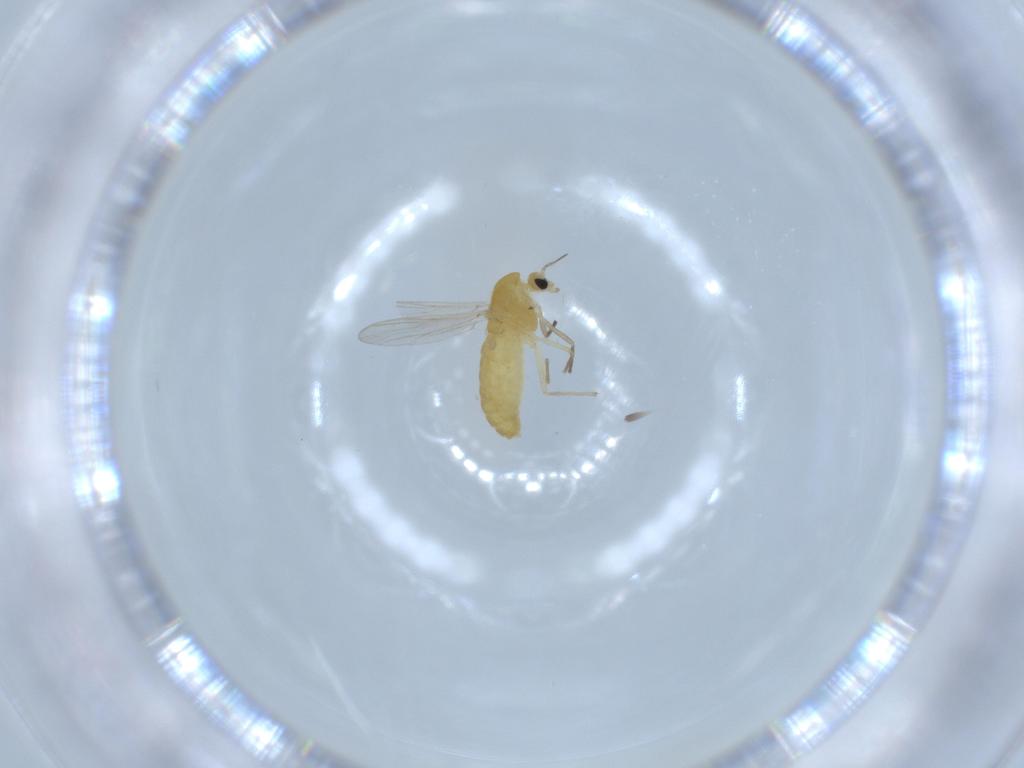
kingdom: Animalia
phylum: Arthropoda
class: Insecta
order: Diptera
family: Chironomidae
